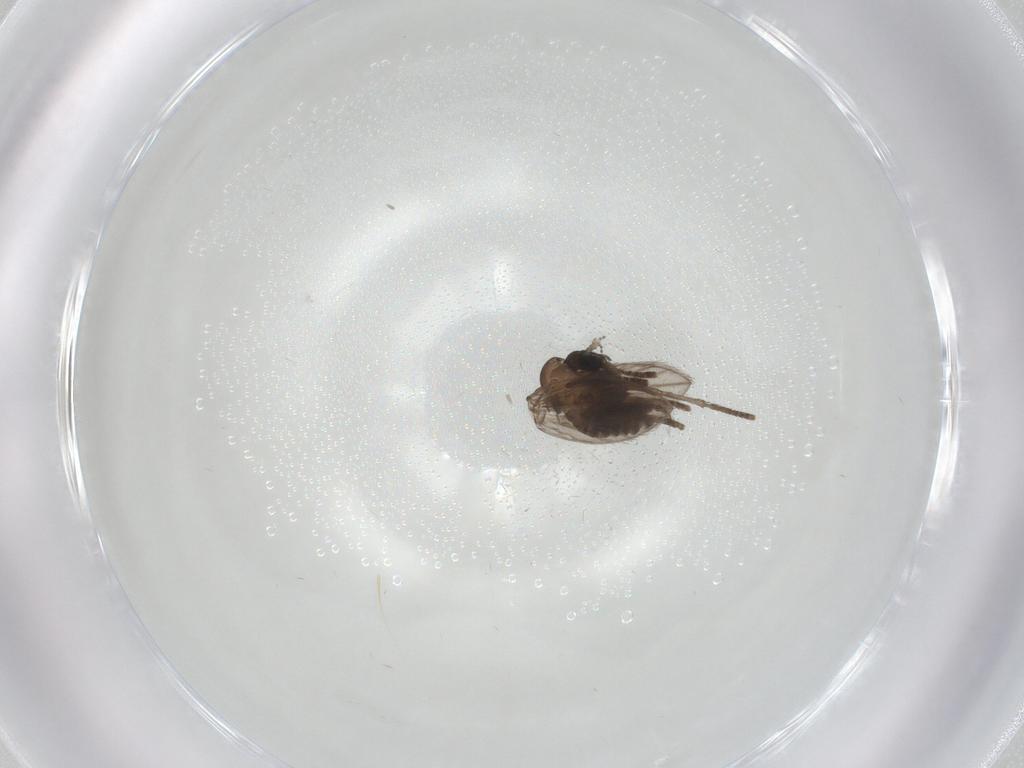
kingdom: Animalia
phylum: Arthropoda
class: Insecta
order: Diptera
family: Psychodidae
